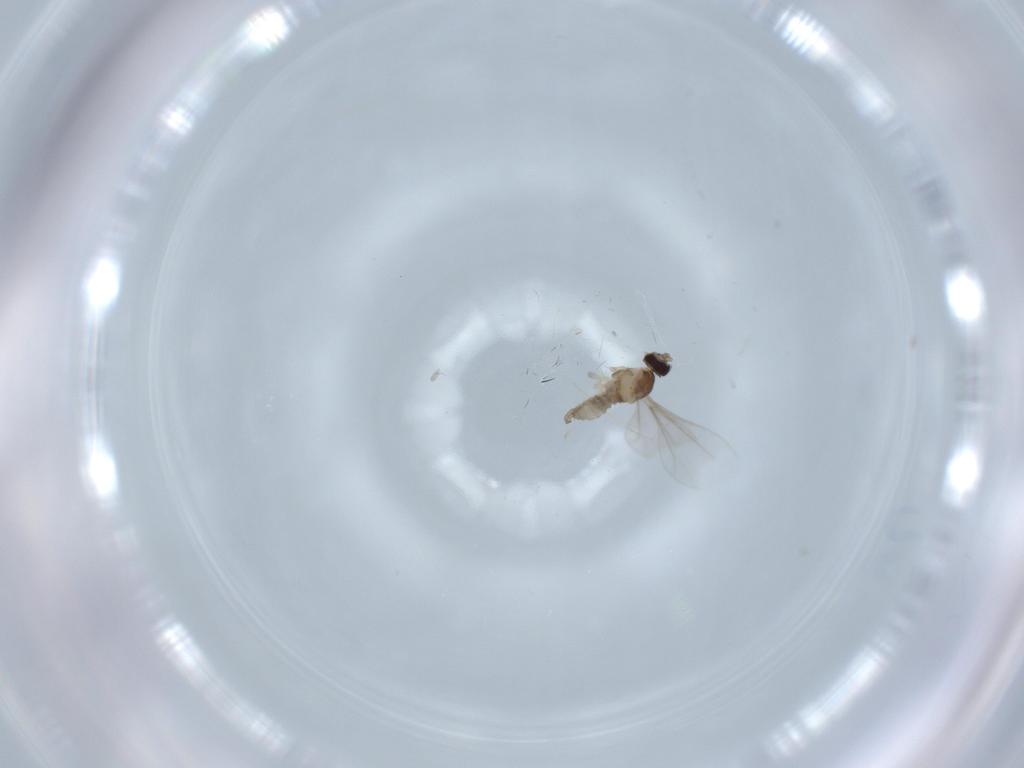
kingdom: Animalia
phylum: Arthropoda
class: Insecta
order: Diptera
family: Cecidomyiidae
